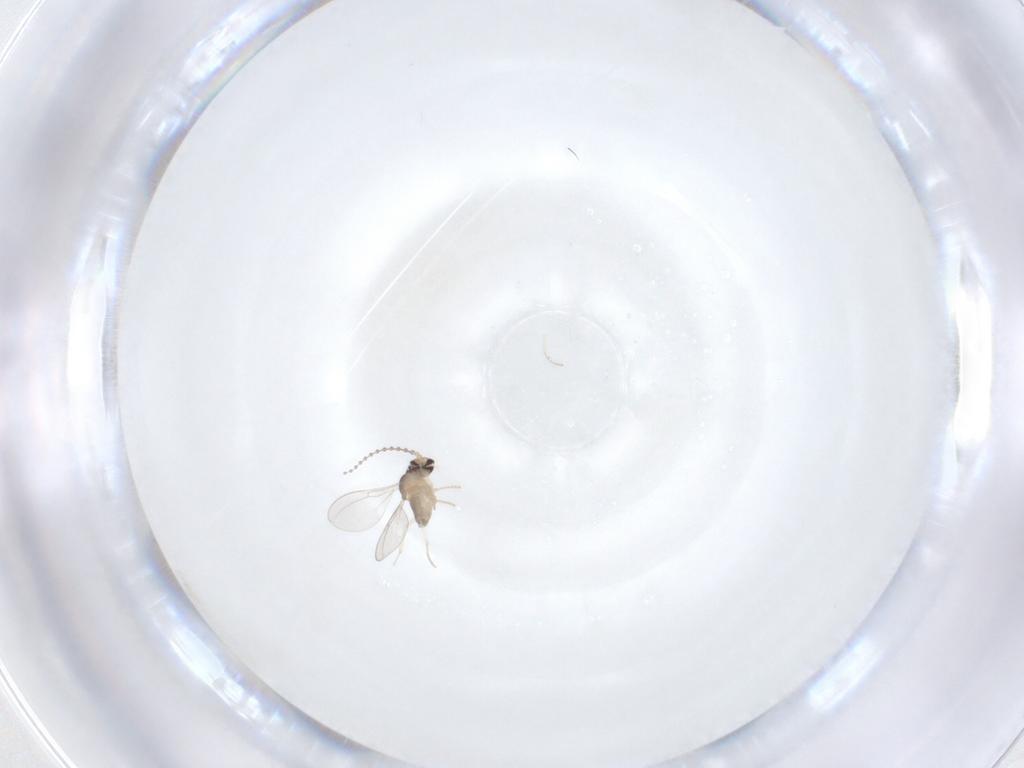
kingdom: Animalia
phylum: Arthropoda
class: Insecta
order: Diptera
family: Cecidomyiidae
